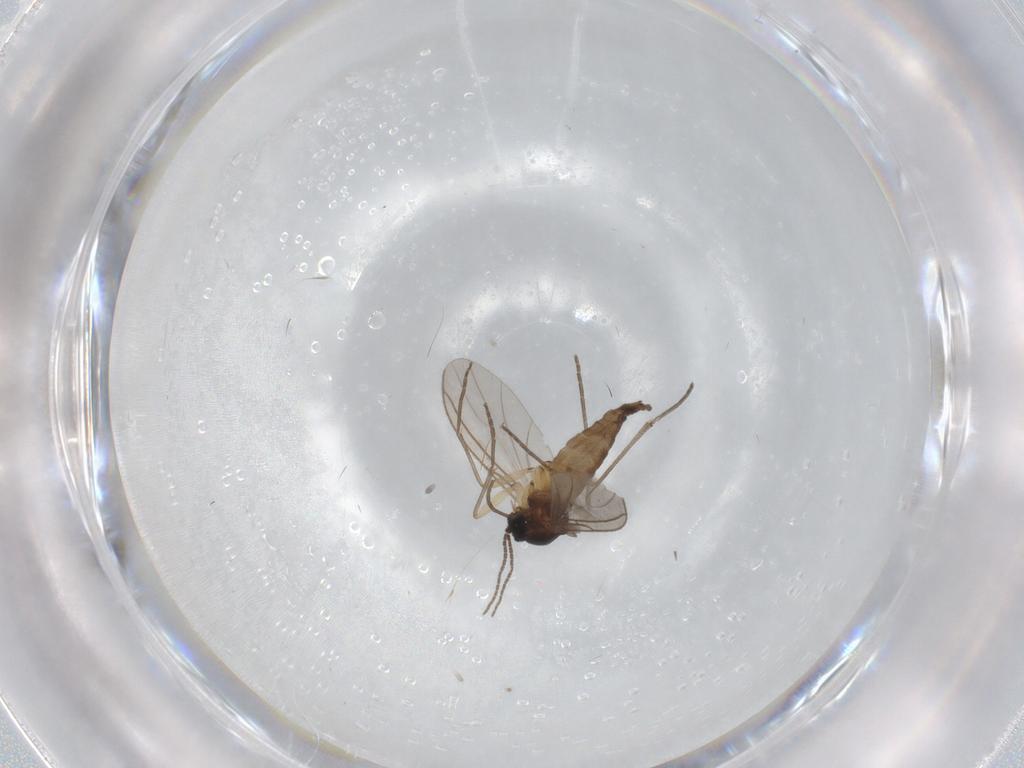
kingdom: Animalia
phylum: Arthropoda
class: Insecta
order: Diptera
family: Sciaridae
